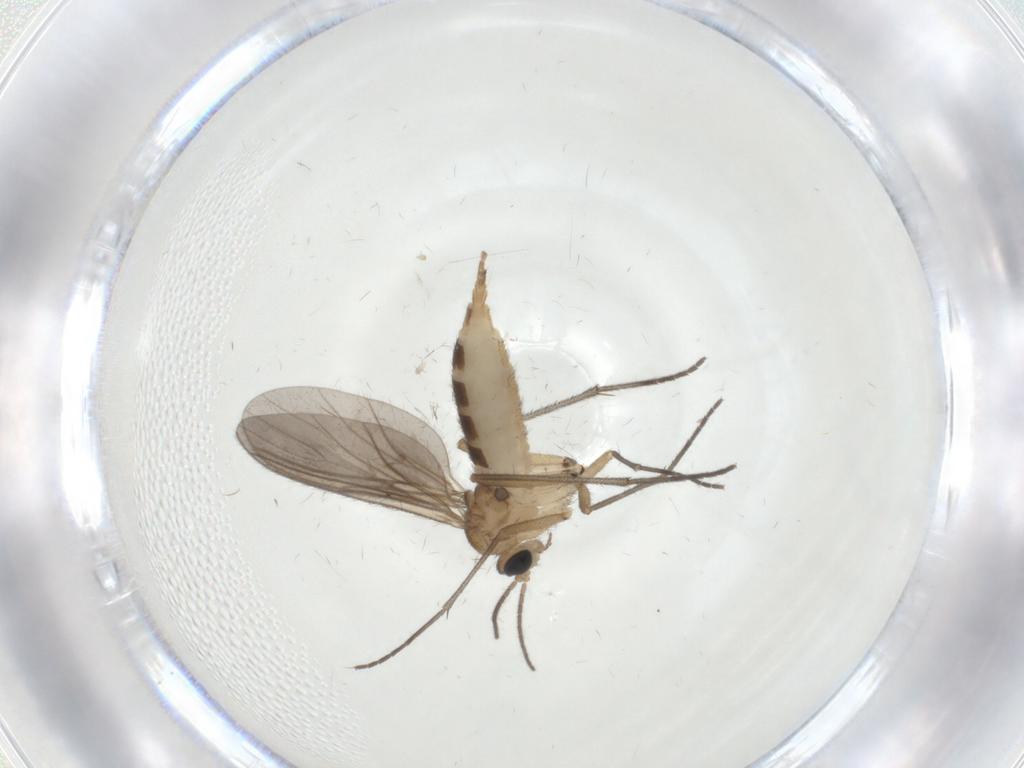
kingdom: Animalia
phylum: Arthropoda
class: Insecta
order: Diptera
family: Sciaridae
